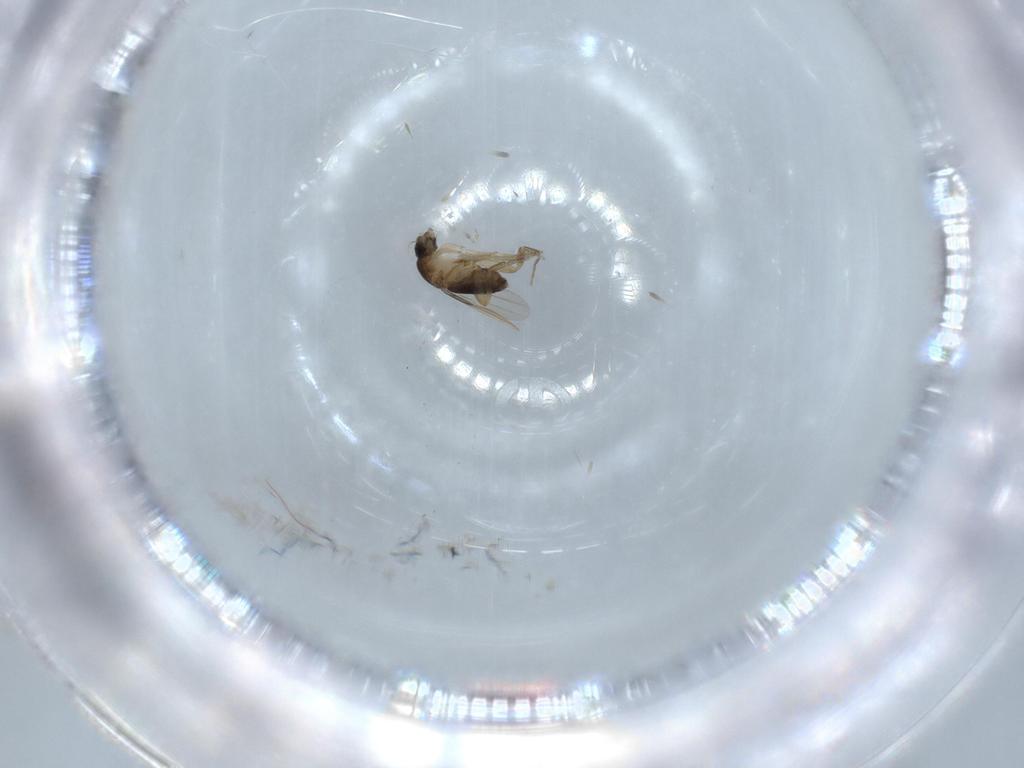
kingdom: Animalia
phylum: Arthropoda
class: Insecta
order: Diptera
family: Phoridae
